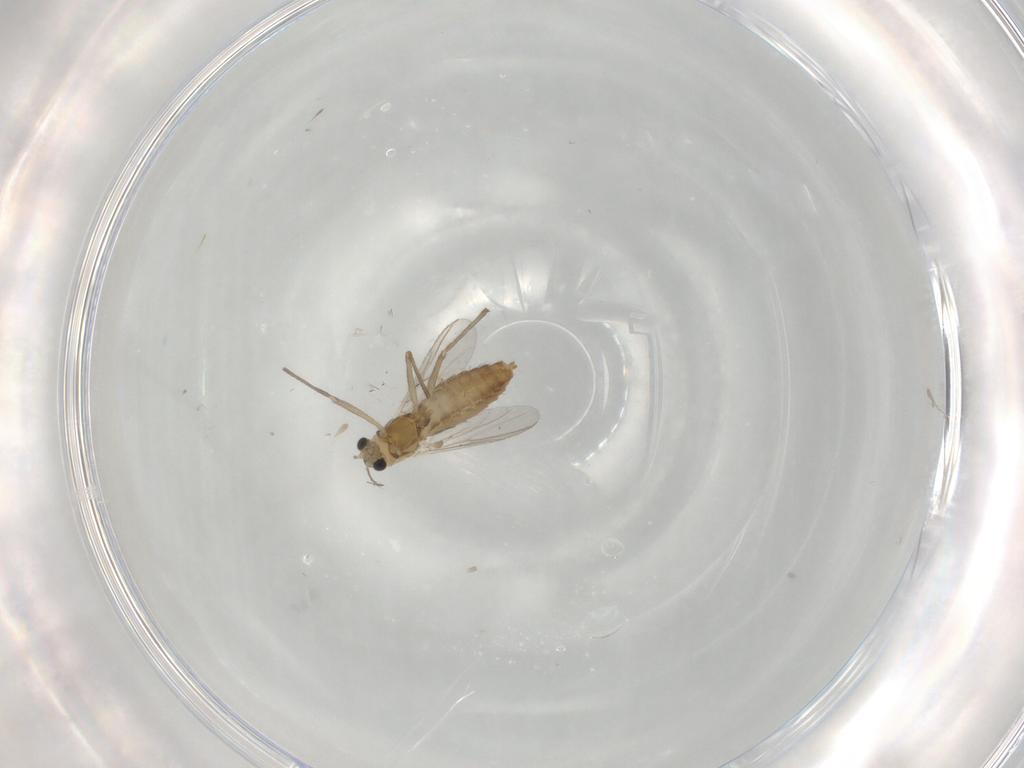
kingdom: Animalia
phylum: Arthropoda
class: Insecta
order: Diptera
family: Chironomidae
